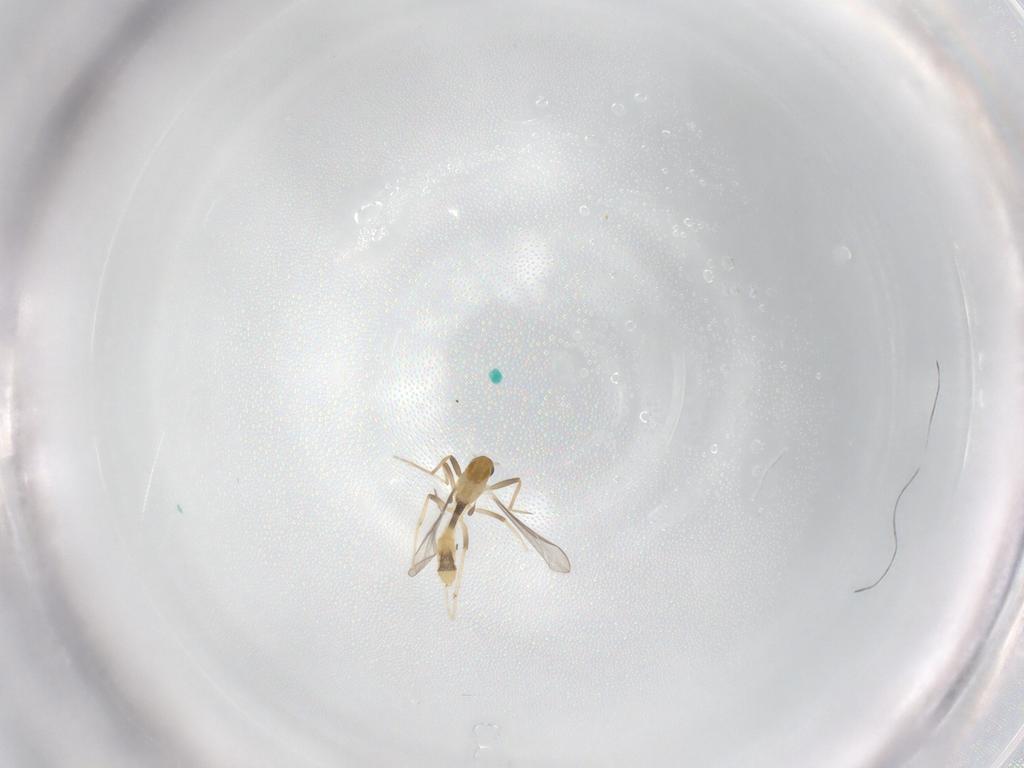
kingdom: Animalia
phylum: Arthropoda
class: Insecta
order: Diptera
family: Chironomidae
